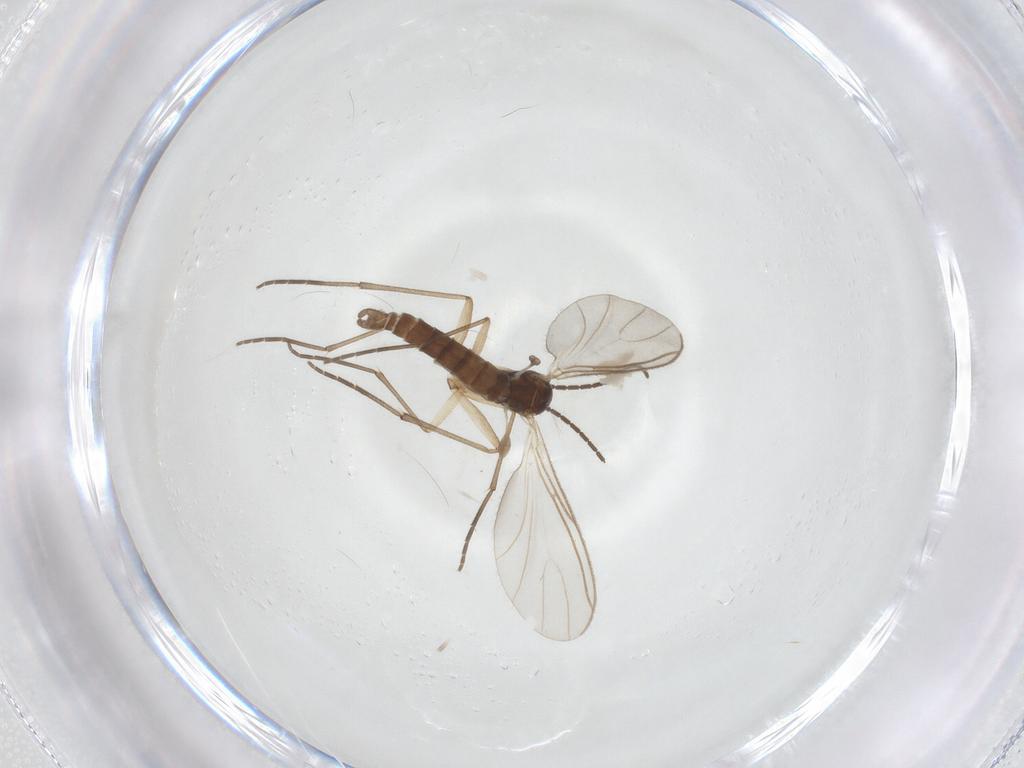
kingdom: Animalia
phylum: Arthropoda
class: Insecta
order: Diptera
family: Sciaridae
